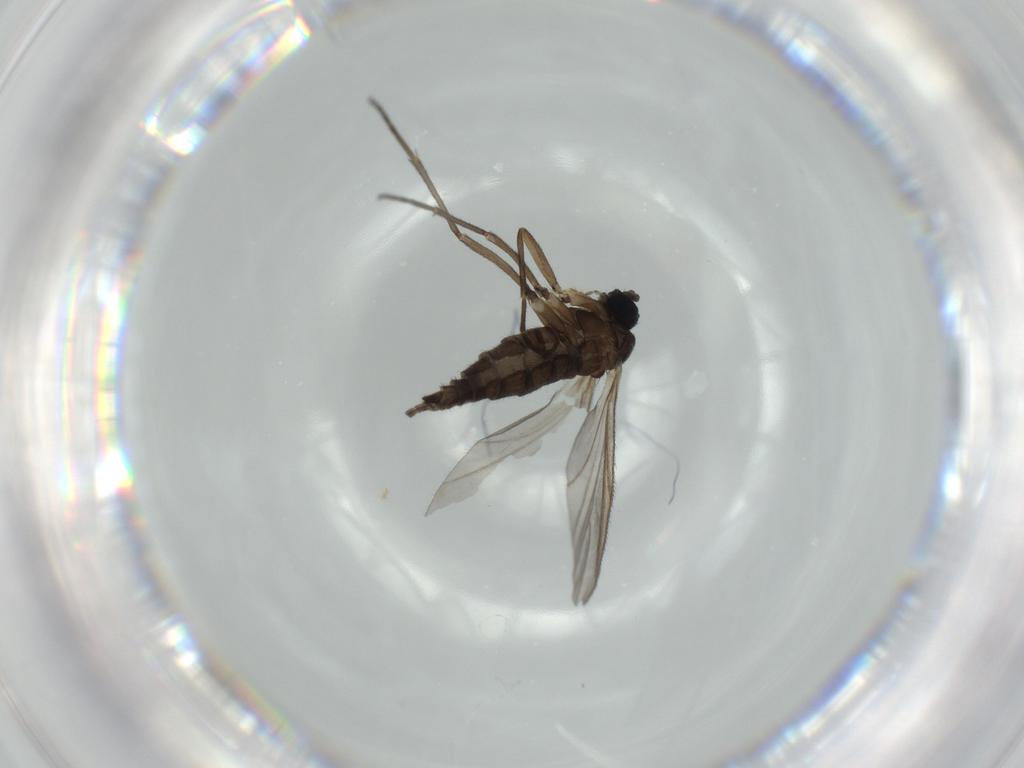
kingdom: Animalia
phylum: Arthropoda
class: Insecta
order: Diptera
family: Sciaridae
